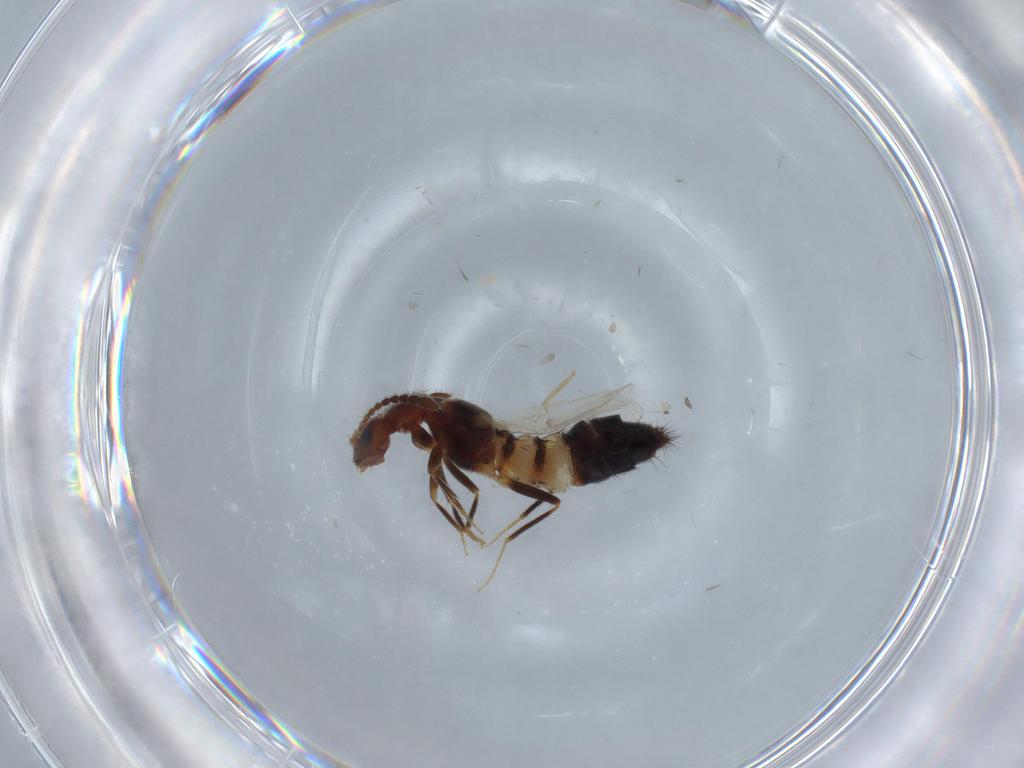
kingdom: Animalia
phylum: Arthropoda
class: Insecta
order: Coleoptera
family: Staphylinidae
